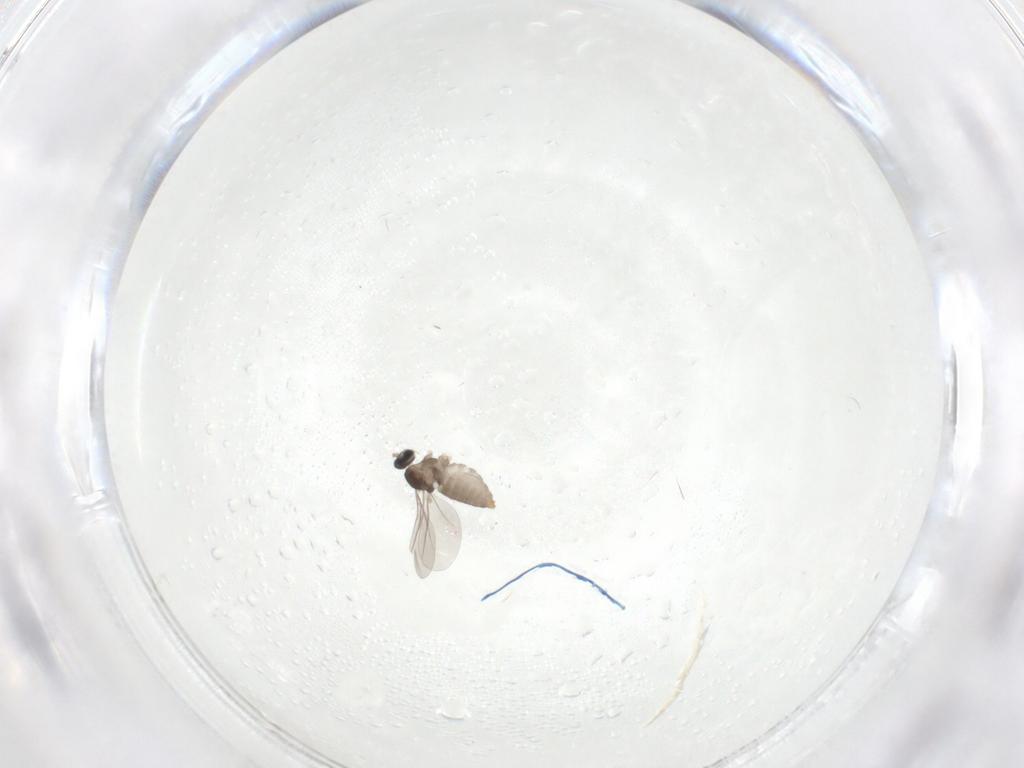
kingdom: Animalia
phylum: Arthropoda
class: Insecta
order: Diptera
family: Cecidomyiidae
